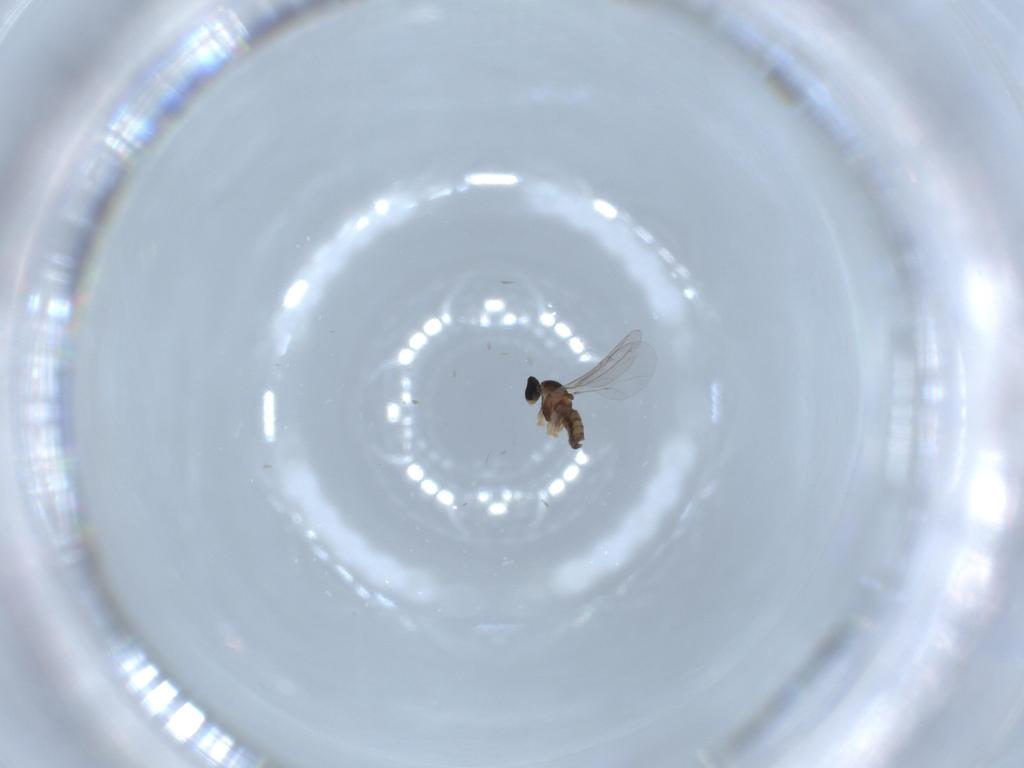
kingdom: Animalia
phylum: Arthropoda
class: Insecta
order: Diptera
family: Cecidomyiidae
